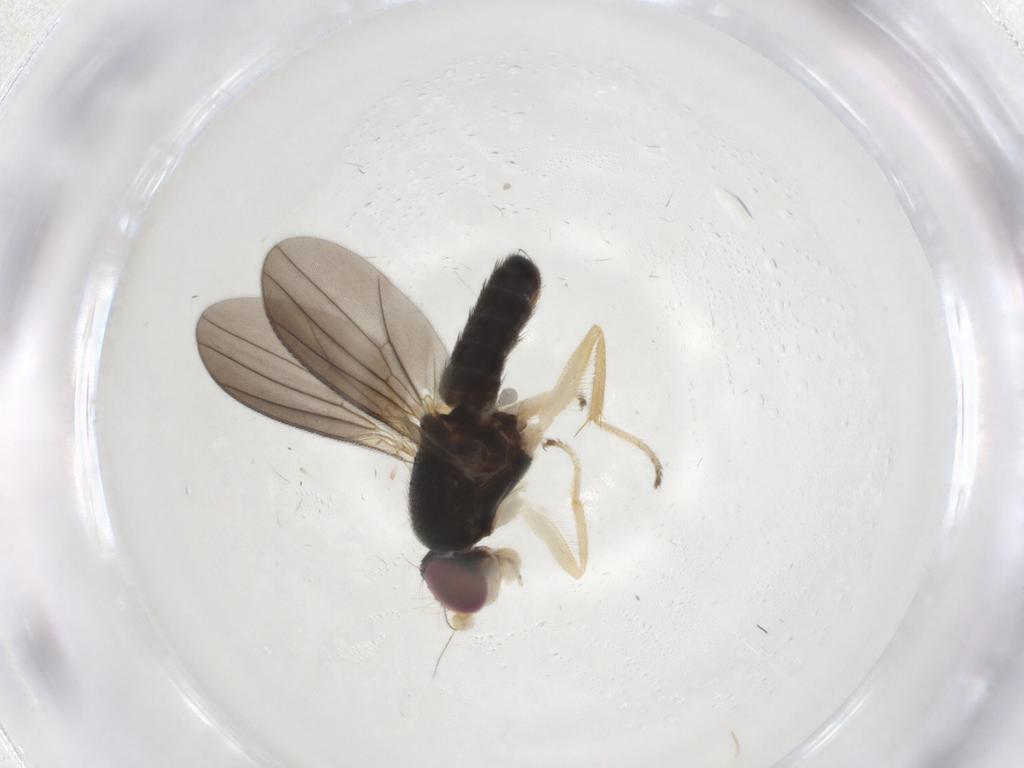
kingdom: Animalia
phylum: Arthropoda
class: Insecta
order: Diptera
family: Clusiidae
